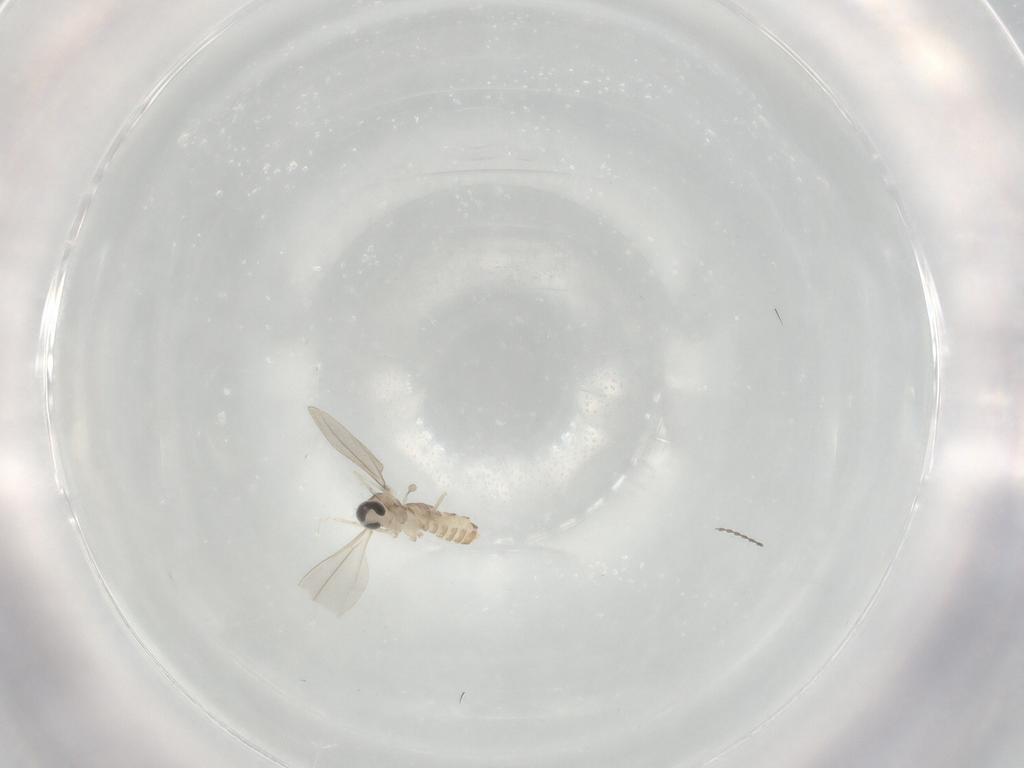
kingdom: Animalia
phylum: Arthropoda
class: Insecta
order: Diptera
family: Cecidomyiidae
